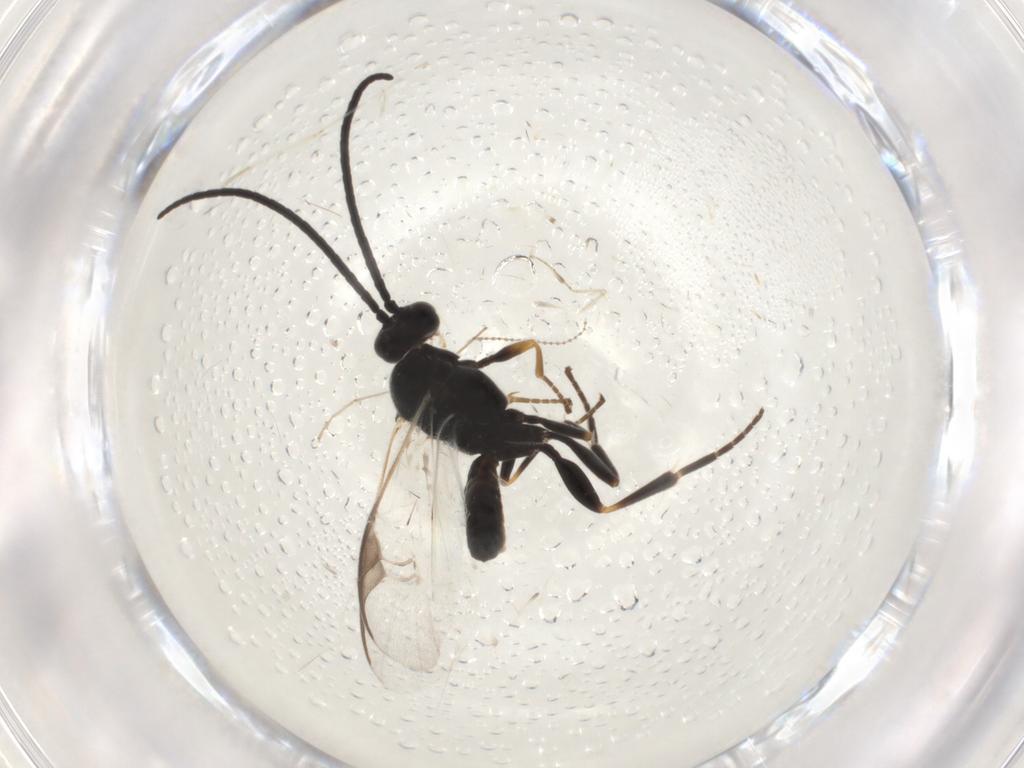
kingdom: Animalia
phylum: Arthropoda
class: Insecta
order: Hymenoptera
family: Braconidae
